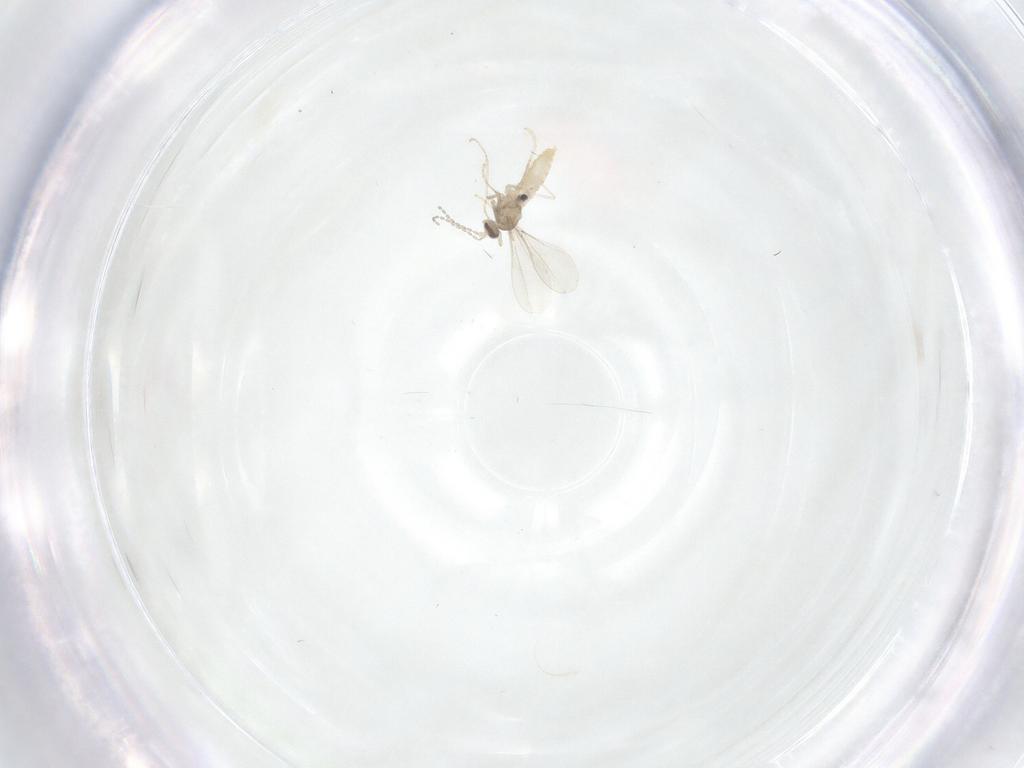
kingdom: Animalia
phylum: Arthropoda
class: Insecta
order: Diptera
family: Cecidomyiidae
